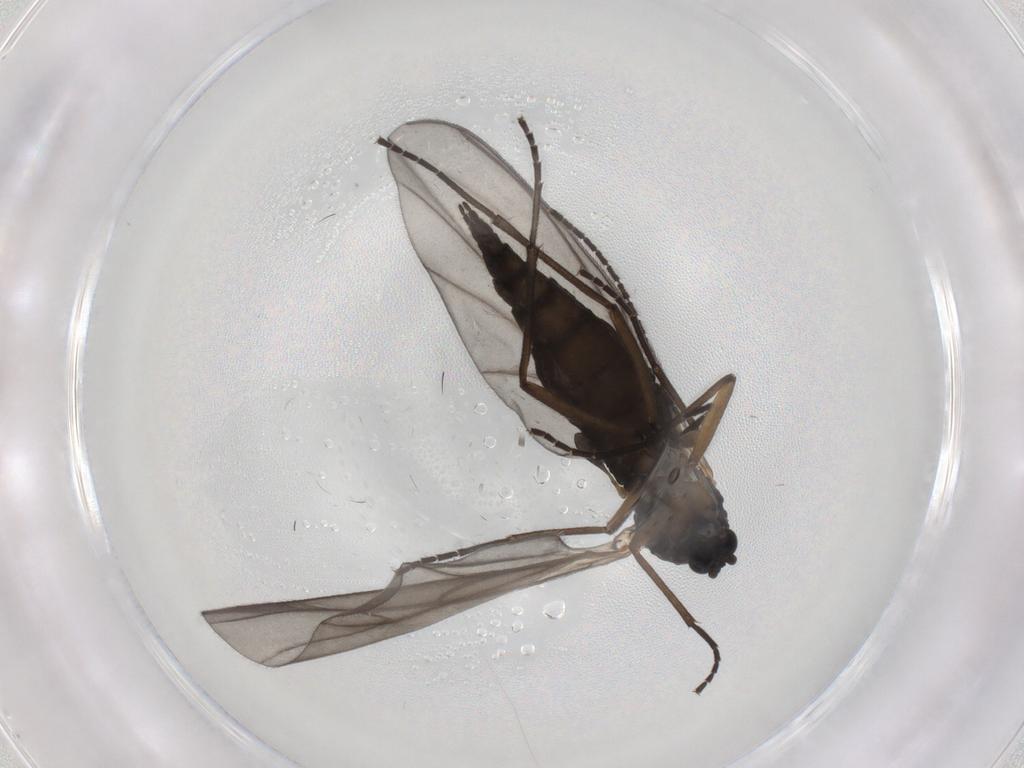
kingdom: Animalia
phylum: Arthropoda
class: Insecta
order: Diptera
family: Sciaridae
